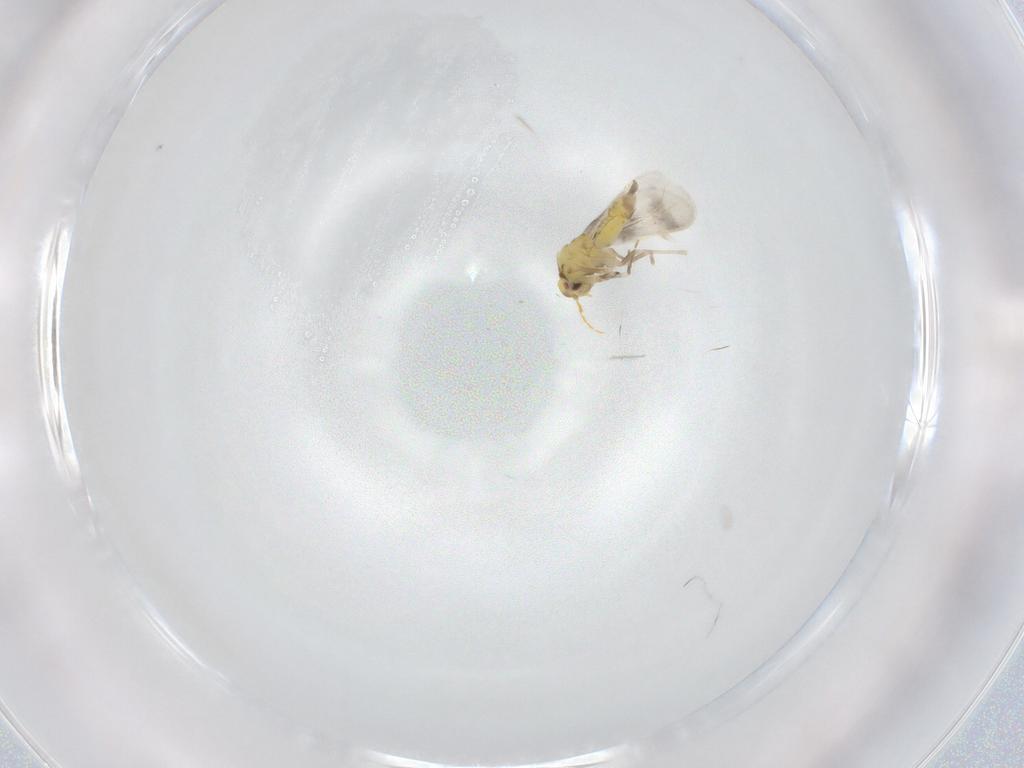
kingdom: Animalia
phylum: Arthropoda
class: Insecta
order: Hemiptera
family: Aleyrodidae
